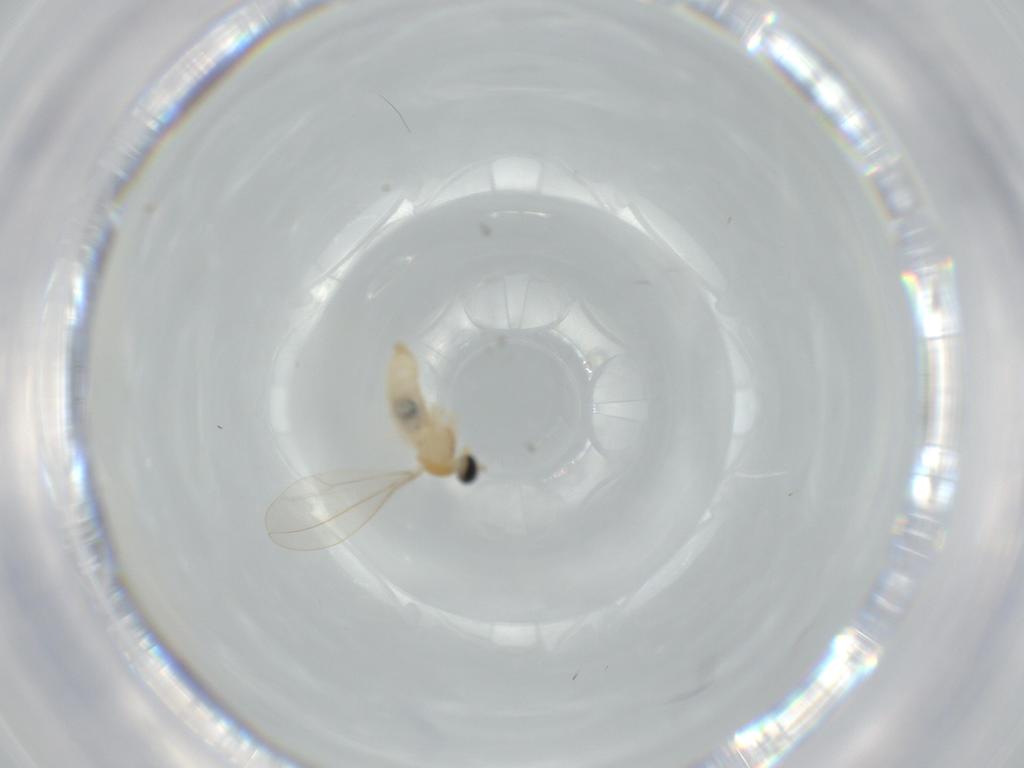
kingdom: Animalia
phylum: Arthropoda
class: Insecta
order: Diptera
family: Cecidomyiidae
